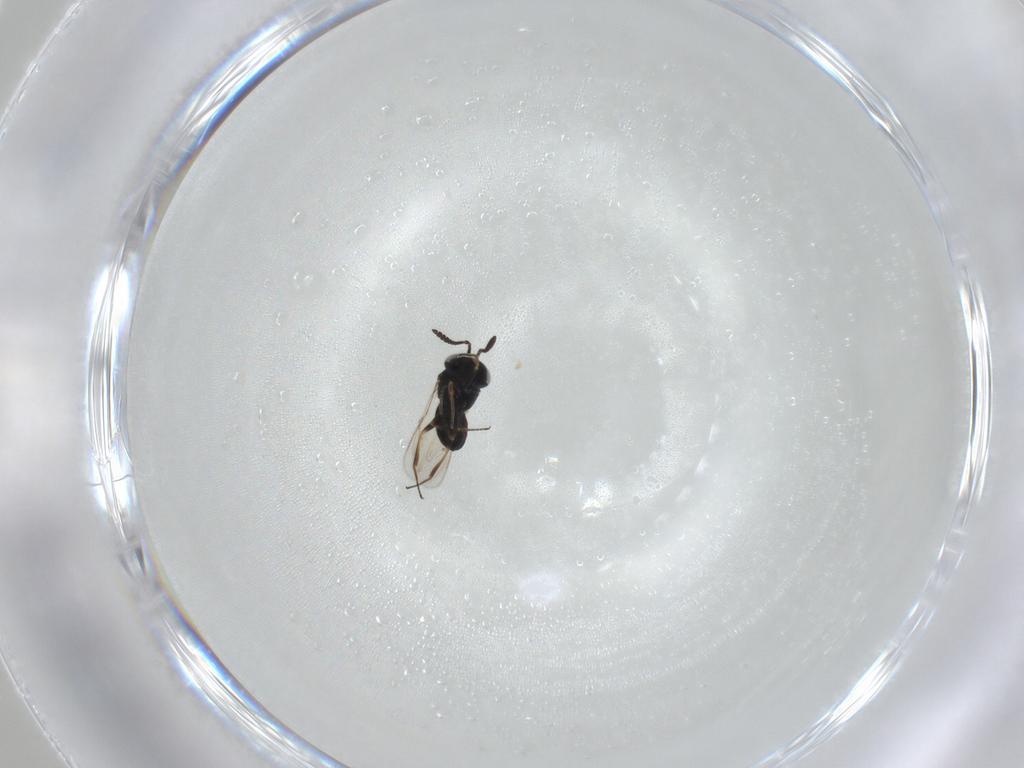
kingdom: Animalia
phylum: Arthropoda
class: Insecta
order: Hymenoptera
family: Scelionidae
